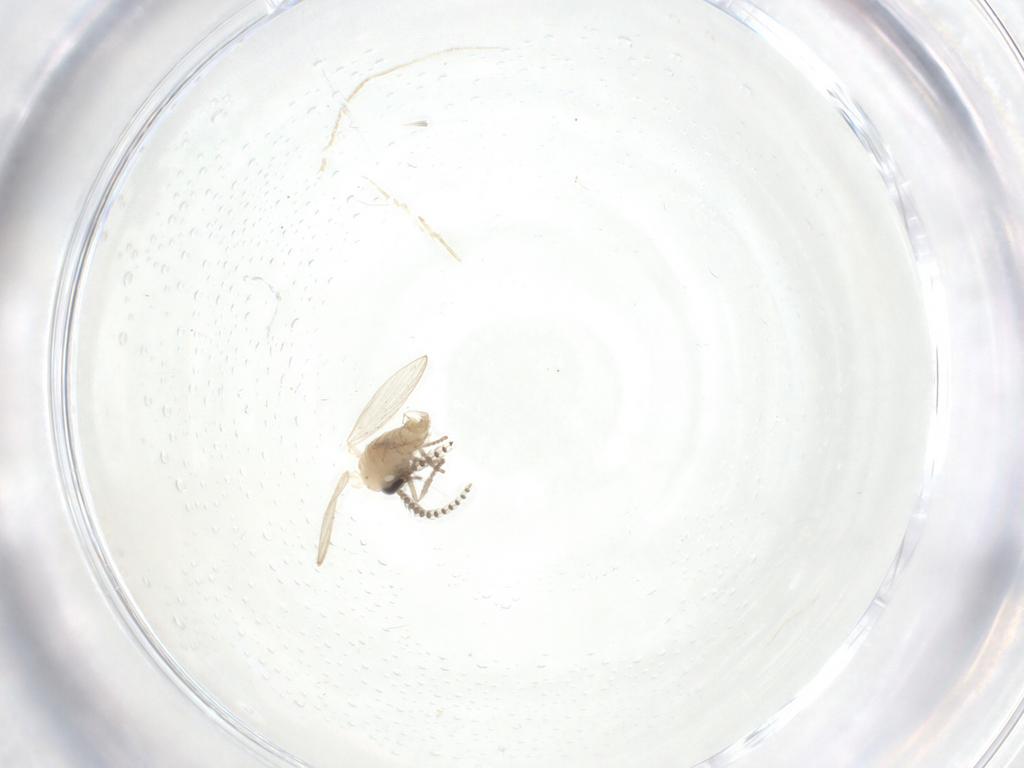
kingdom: Animalia
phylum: Arthropoda
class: Insecta
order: Diptera
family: Psychodidae
